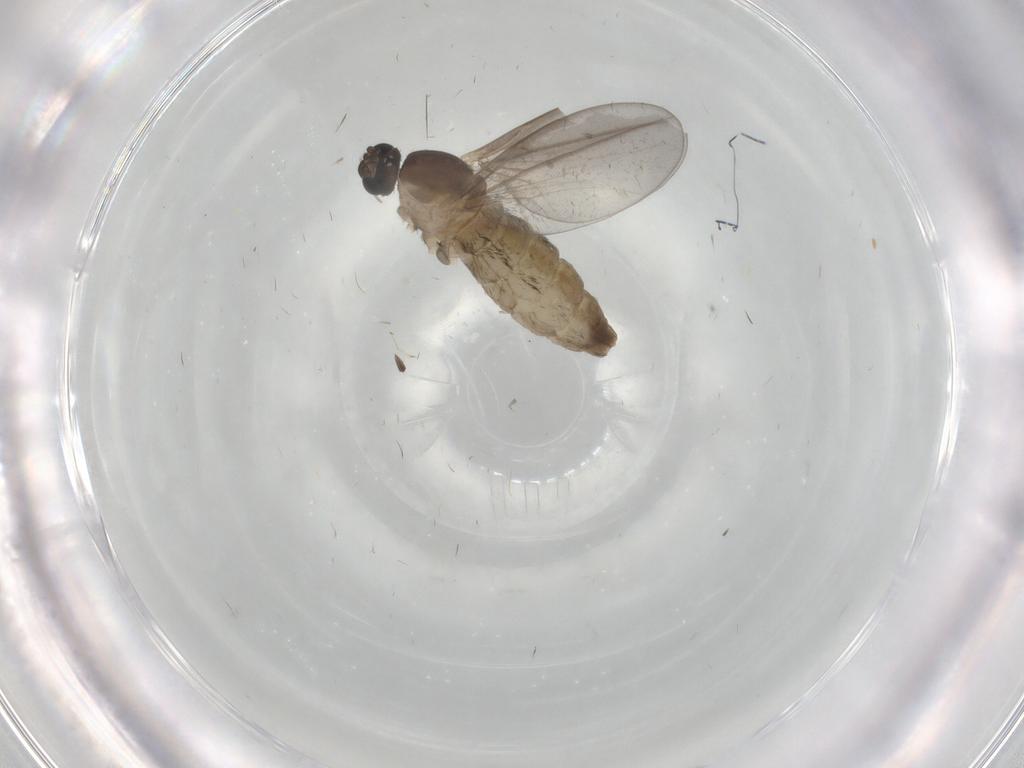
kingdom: Animalia
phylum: Arthropoda
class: Insecta
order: Diptera
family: Cecidomyiidae
